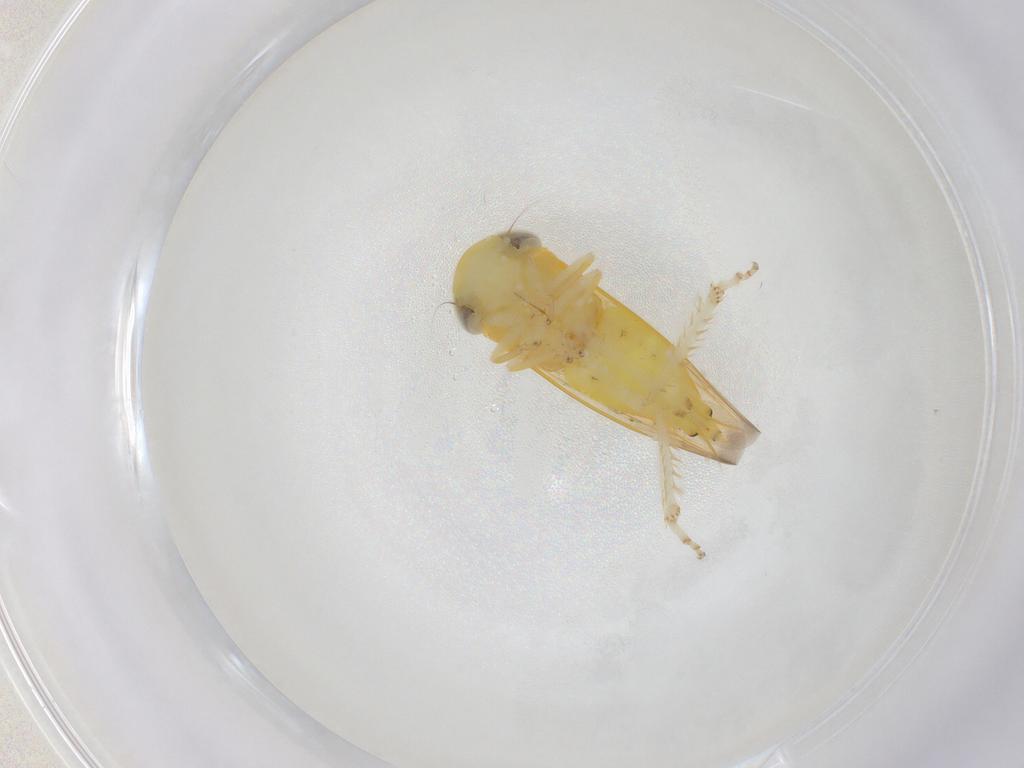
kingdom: Animalia
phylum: Arthropoda
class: Insecta
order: Hemiptera
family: Cicadellidae
